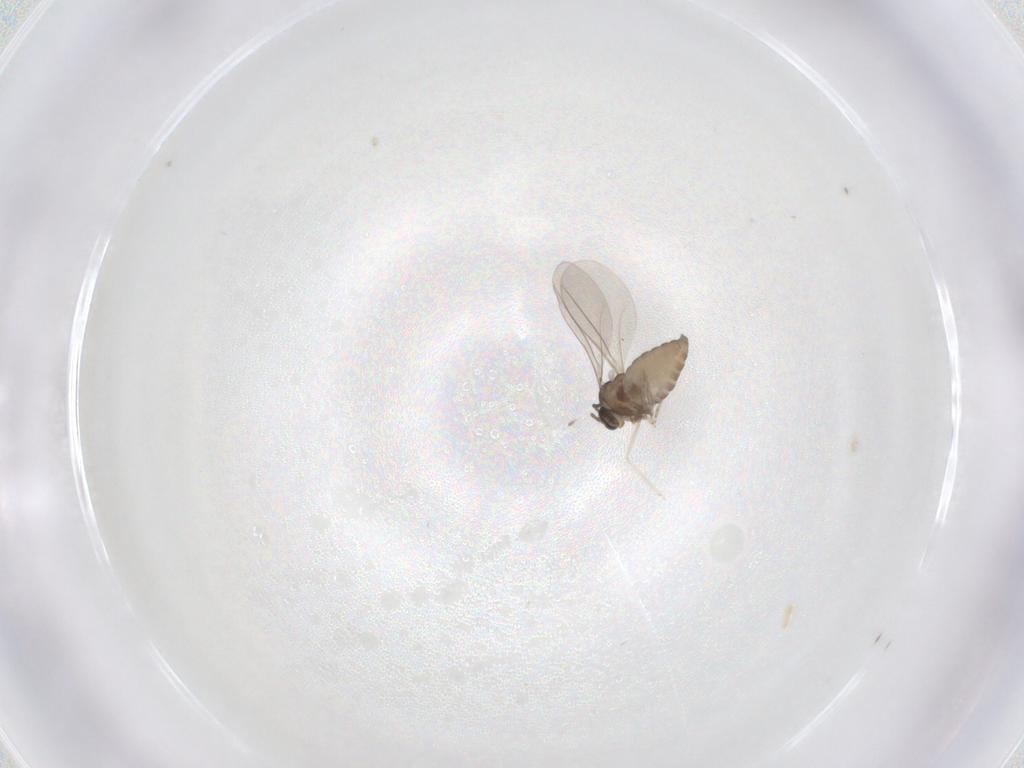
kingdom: Animalia
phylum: Arthropoda
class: Insecta
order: Diptera
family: Cecidomyiidae
